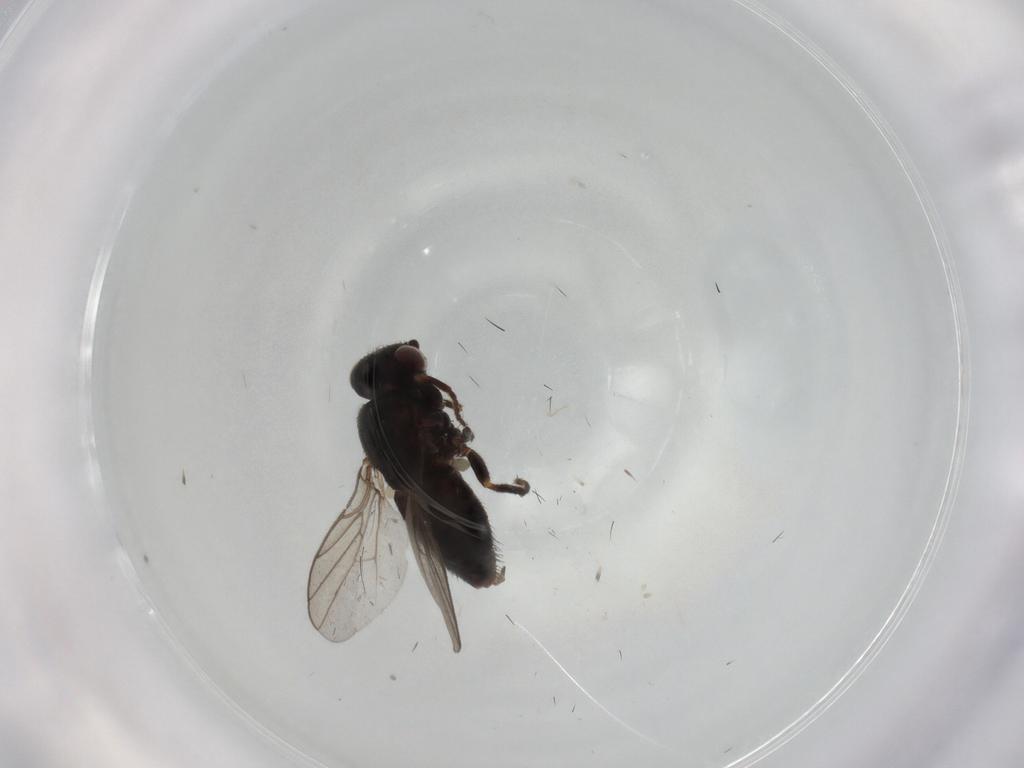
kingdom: Animalia
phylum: Arthropoda
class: Insecta
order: Diptera
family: Chloropidae
